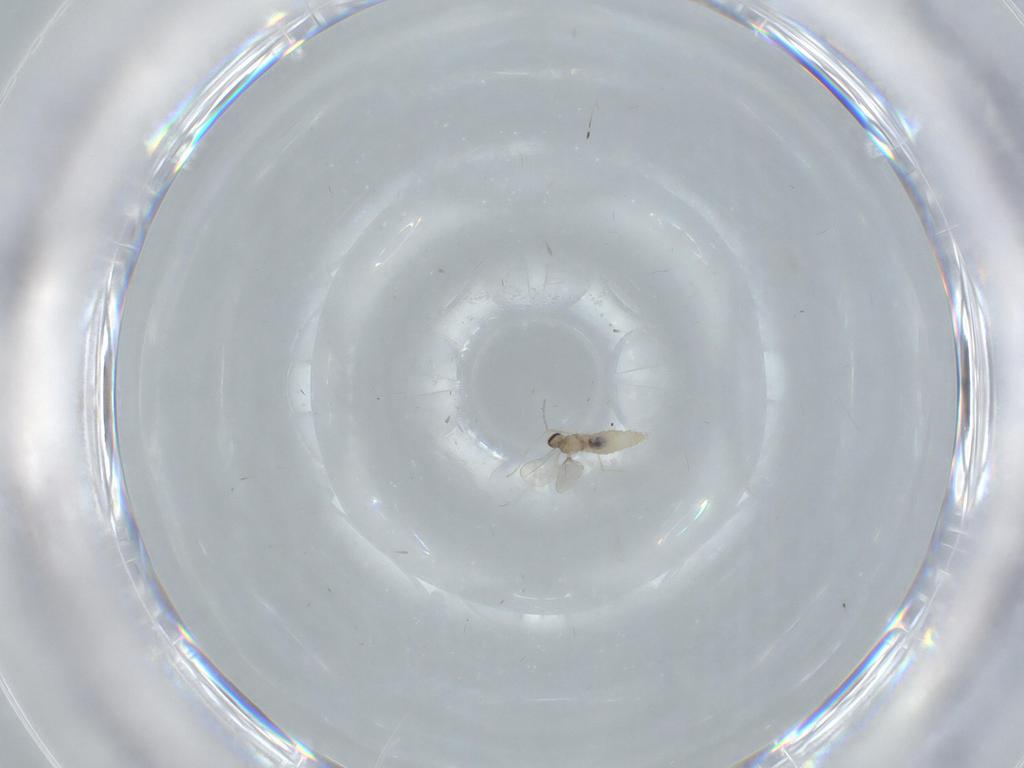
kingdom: Animalia
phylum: Arthropoda
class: Insecta
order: Diptera
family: Cecidomyiidae
